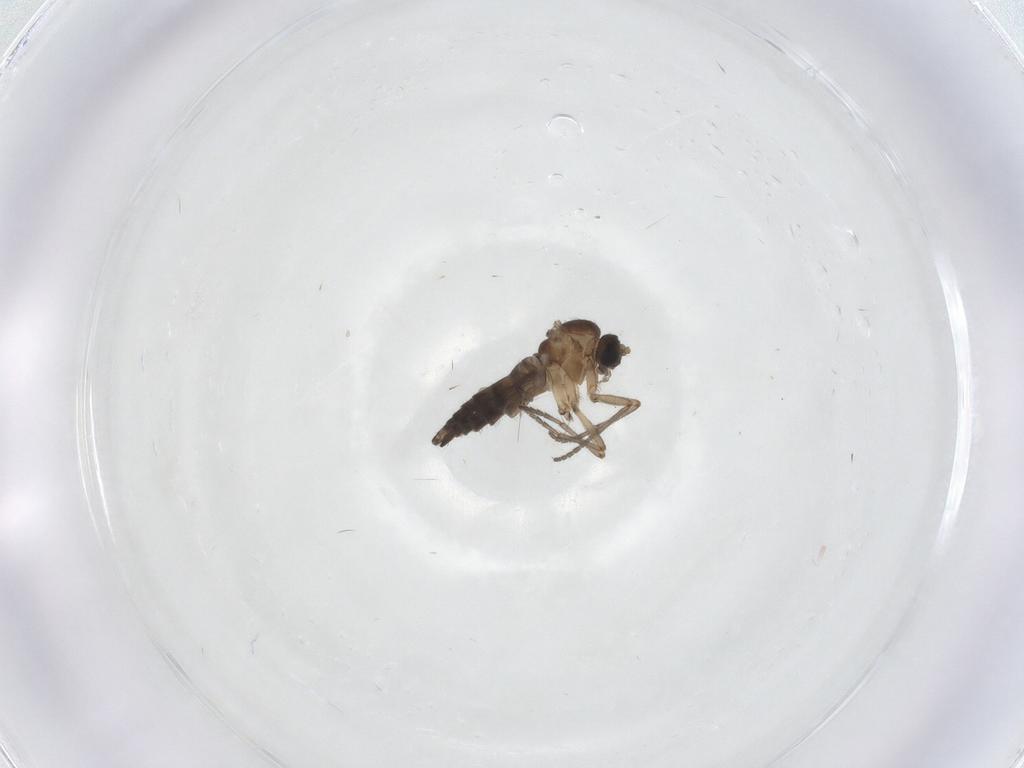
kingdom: Animalia
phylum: Arthropoda
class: Insecta
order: Diptera
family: Sciaridae
